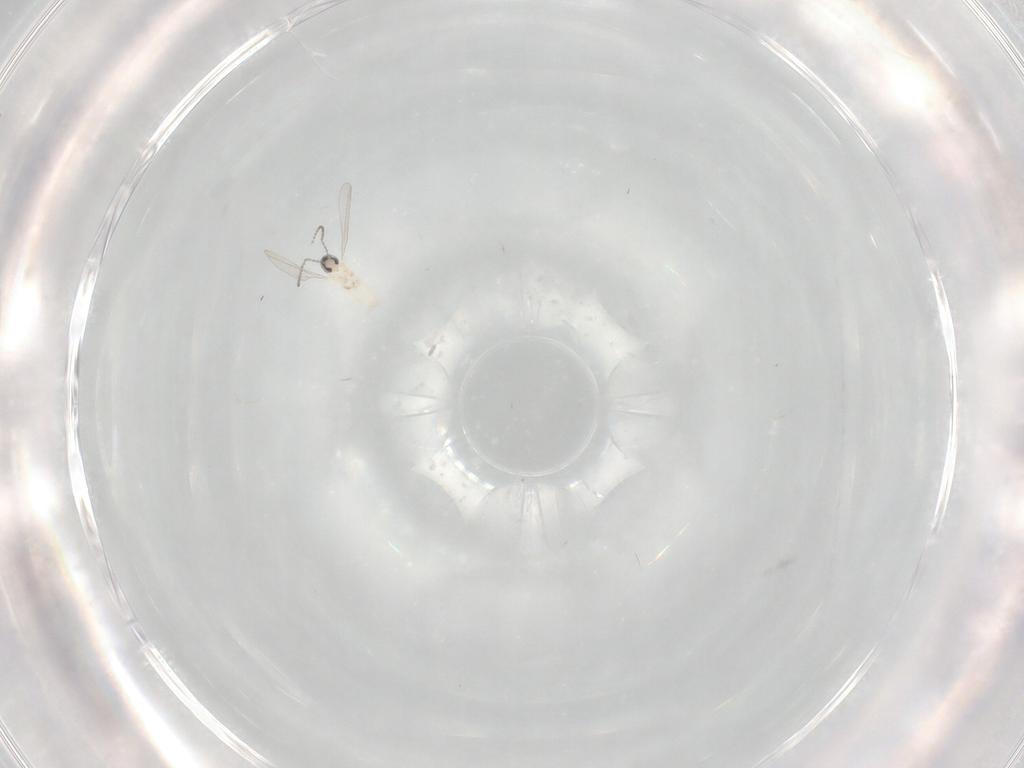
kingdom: Animalia
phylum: Arthropoda
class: Insecta
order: Diptera
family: Cecidomyiidae
